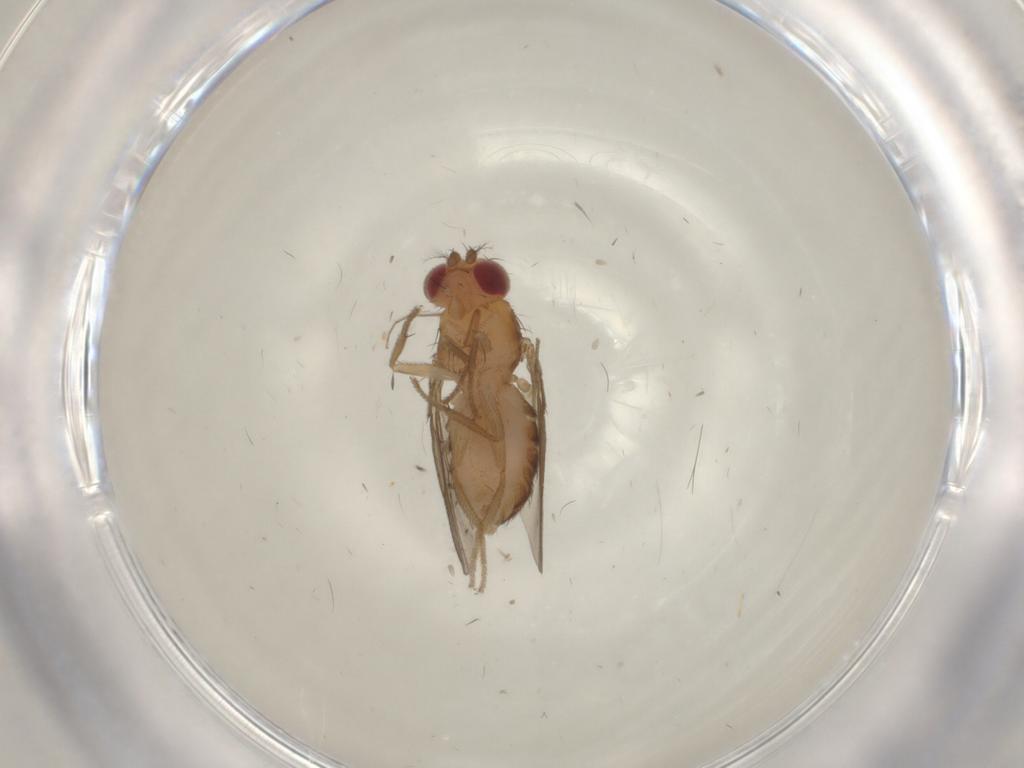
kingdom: Animalia
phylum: Arthropoda
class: Insecta
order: Diptera
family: Drosophilidae
